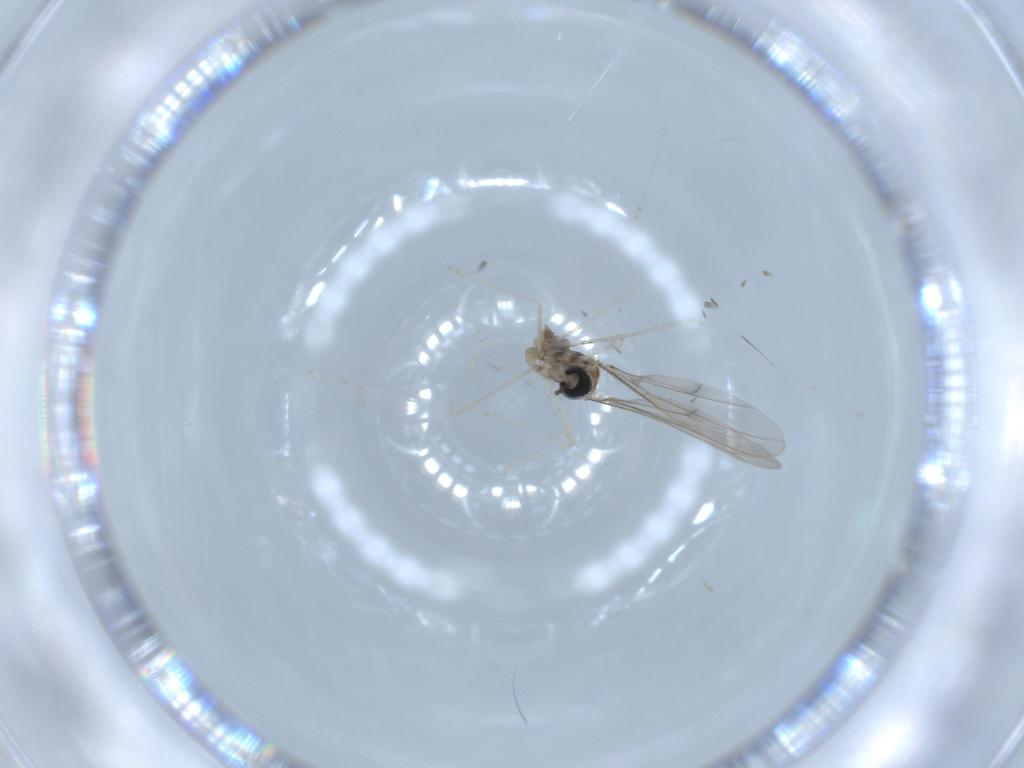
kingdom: Animalia
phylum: Arthropoda
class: Insecta
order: Diptera
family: Cecidomyiidae
